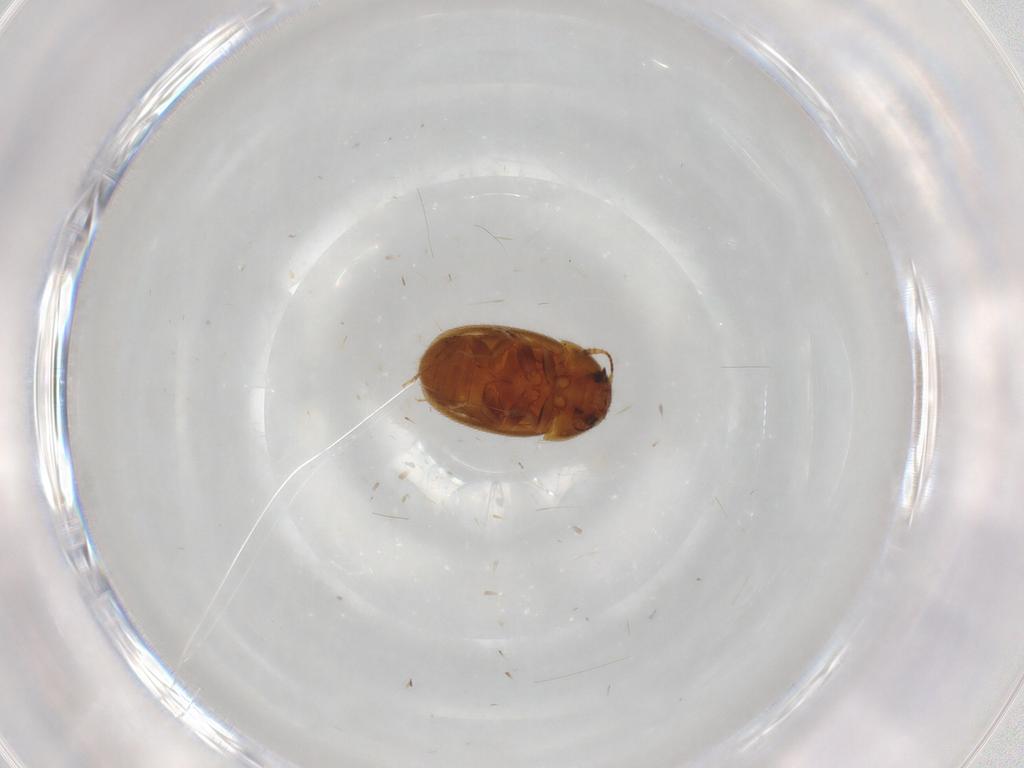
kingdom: Animalia
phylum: Arthropoda
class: Insecta
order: Coleoptera
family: Mycetophagidae
